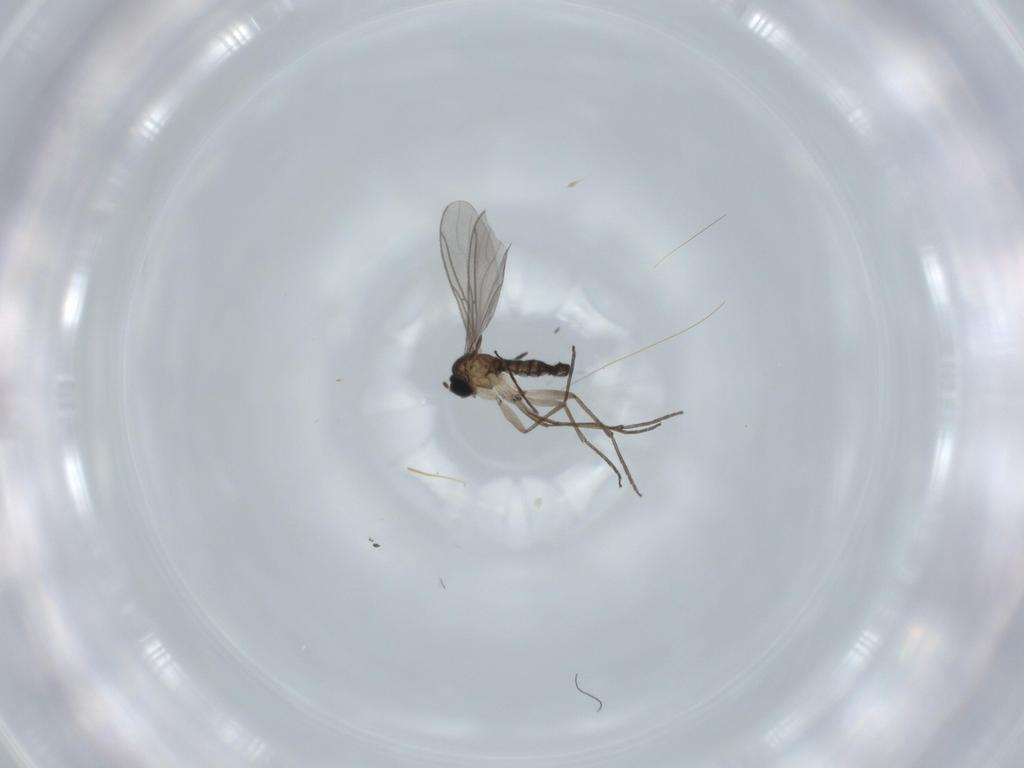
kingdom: Animalia
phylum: Arthropoda
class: Insecta
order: Diptera
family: Sciaridae
